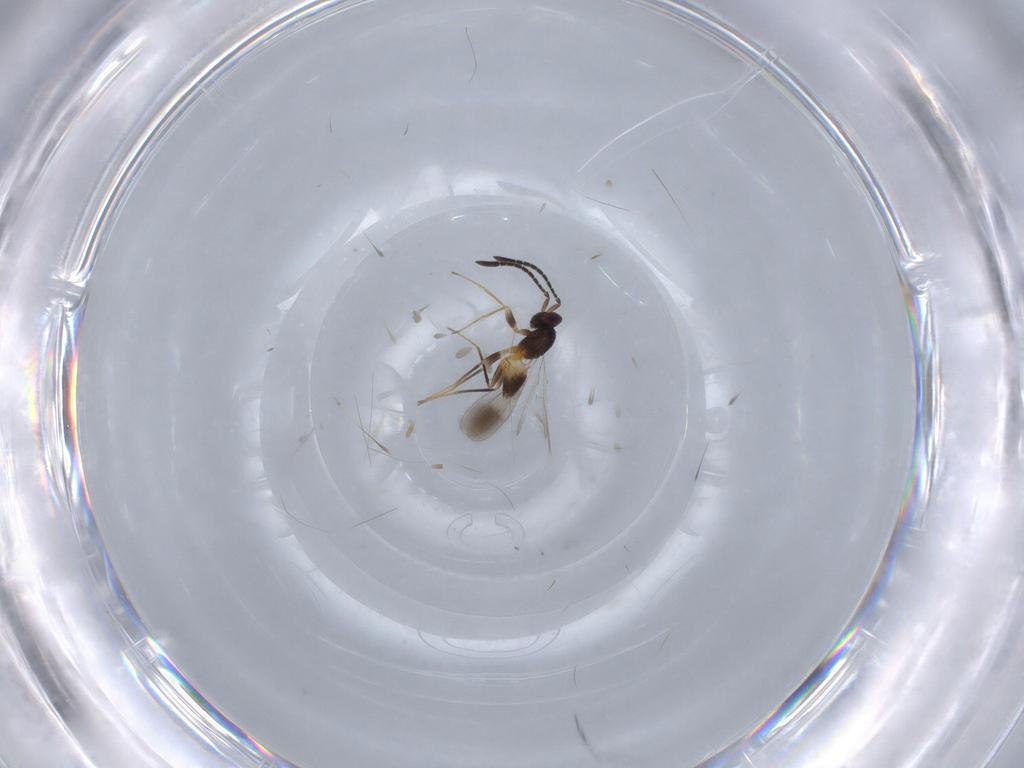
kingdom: Animalia
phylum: Arthropoda
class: Insecta
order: Hymenoptera
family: Mymaridae
